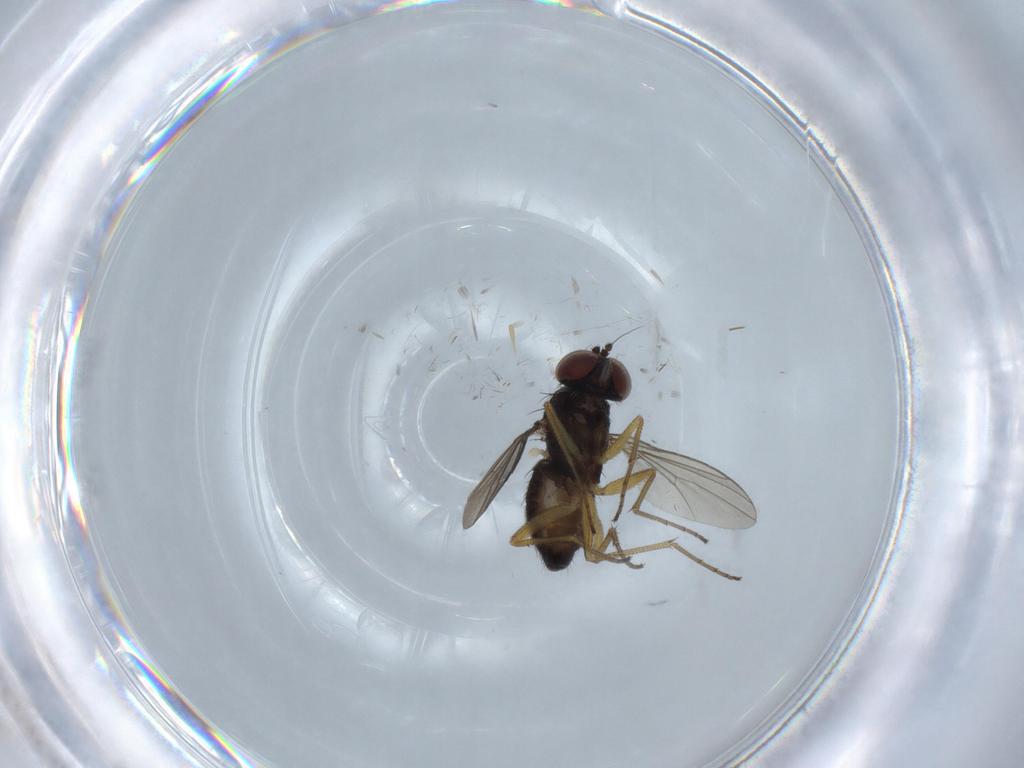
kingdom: Animalia
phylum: Arthropoda
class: Insecta
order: Diptera
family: Dolichopodidae
